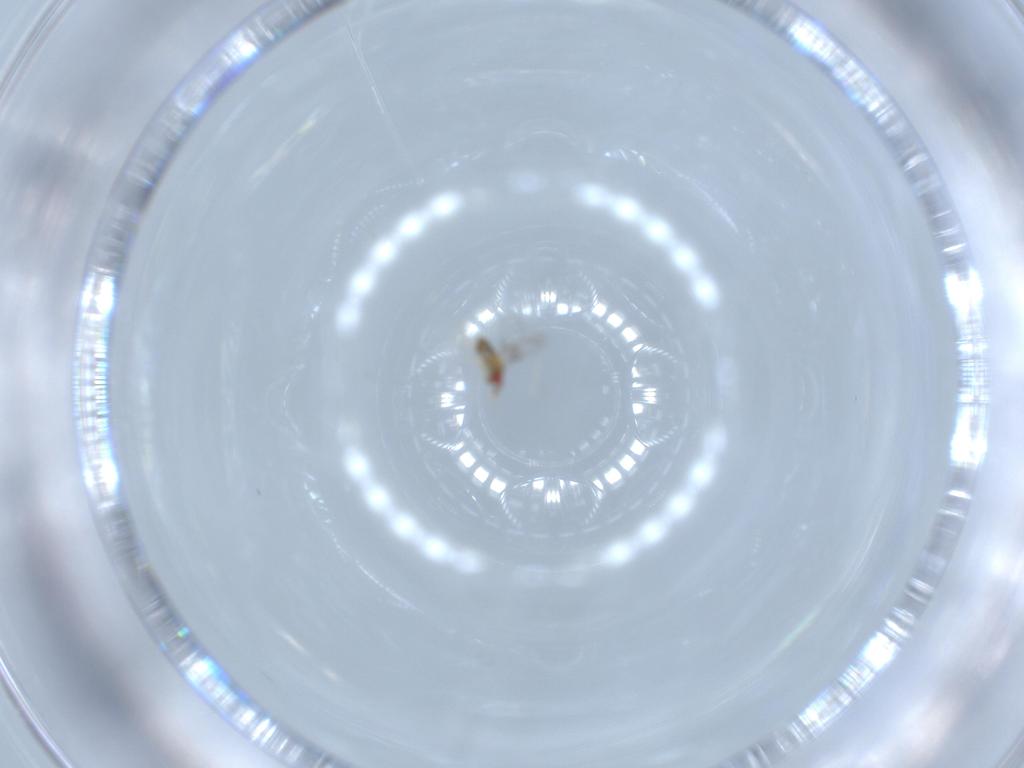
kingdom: Animalia
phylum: Arthropoda
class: Insecta
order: Hymenoptera
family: Trichogrammatidae
